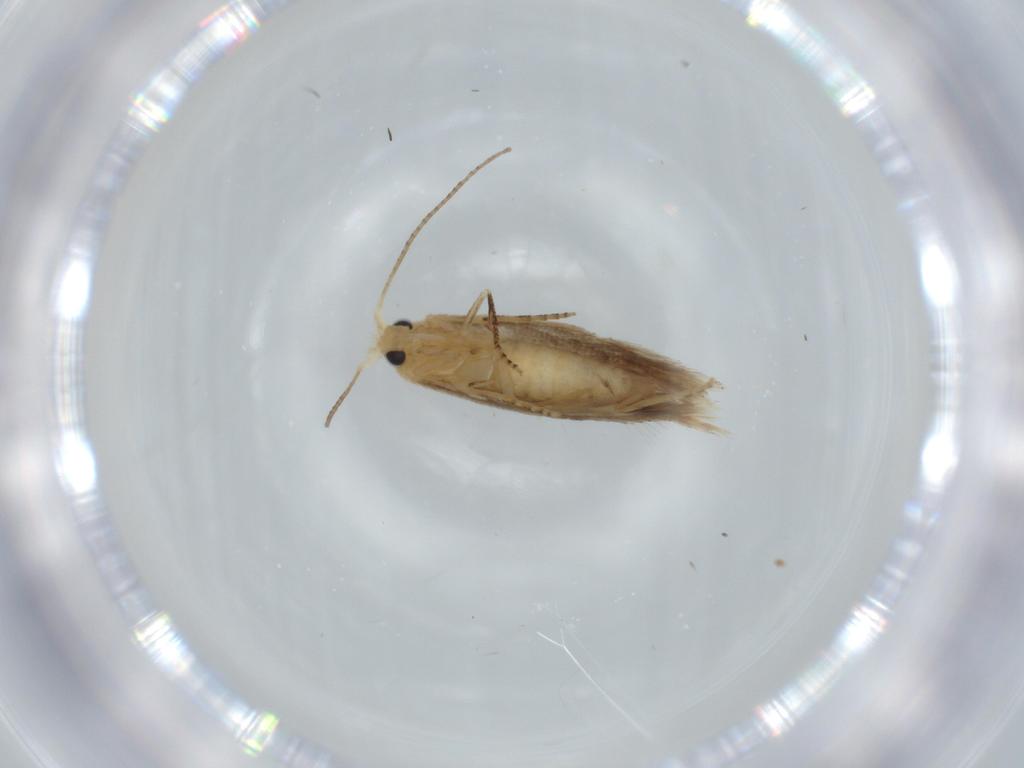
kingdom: Animalia
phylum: Arthropoda
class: Insecta
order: Lepidoptera
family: Bucculatricidae
